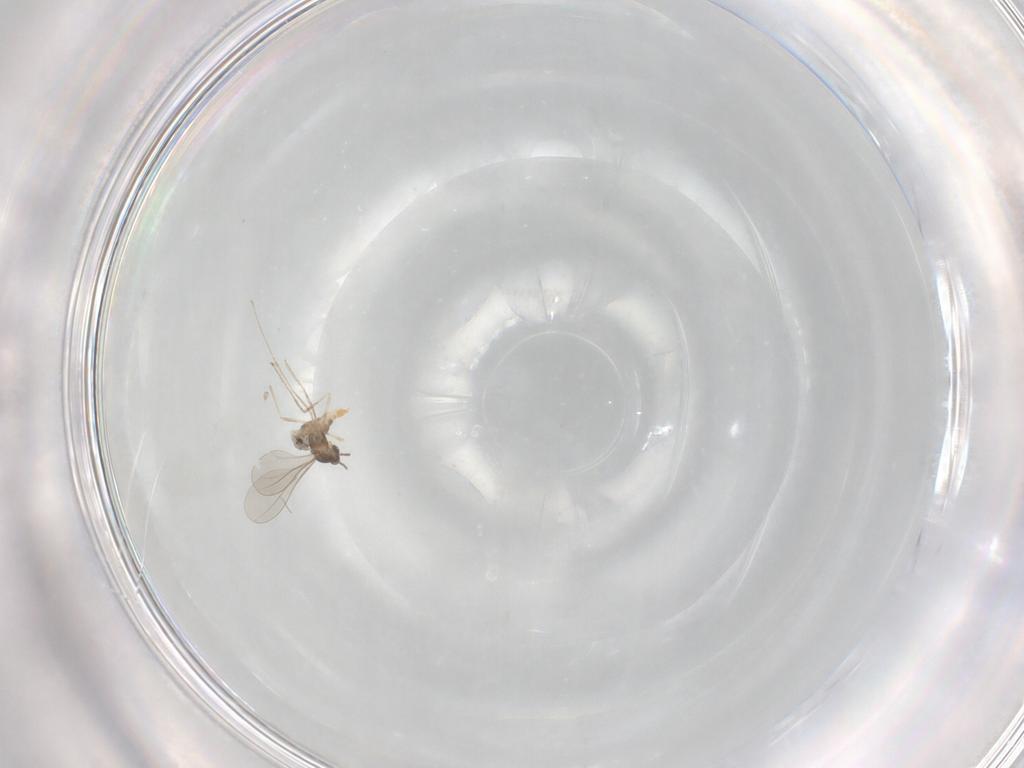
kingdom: Animalia
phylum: Arthropoda
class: Insecta
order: Diptera
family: Cecidomyiidae
